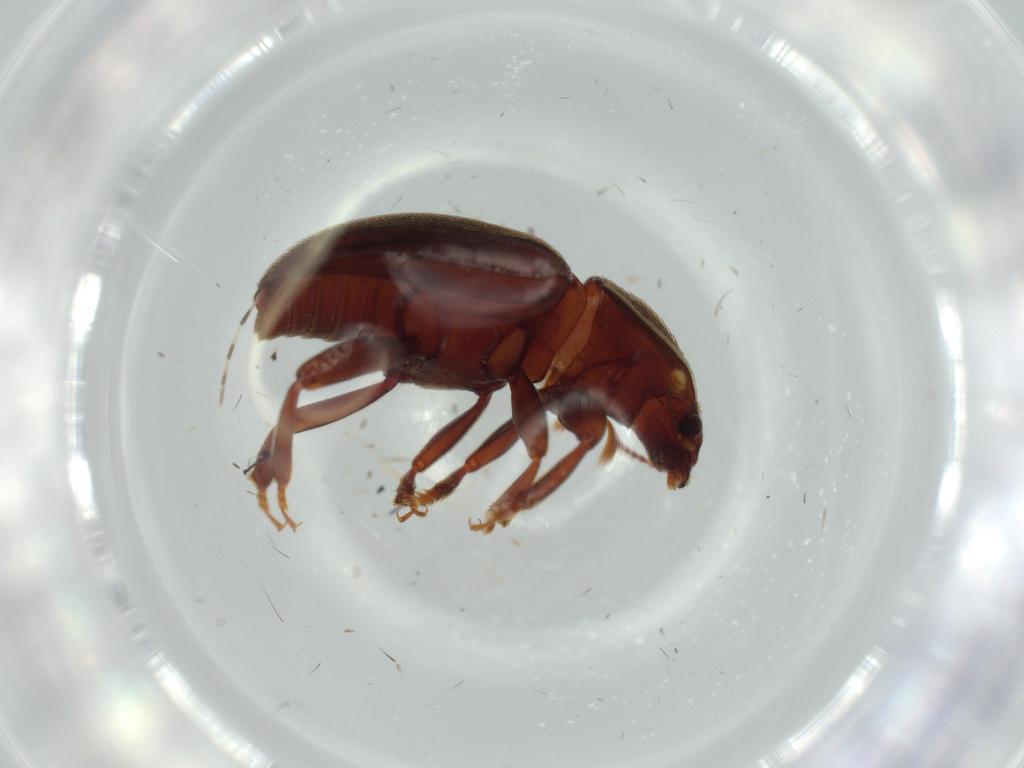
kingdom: Animalia
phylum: Arthropoda
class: Insecta
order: Coleoptera
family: Nitidulidae
